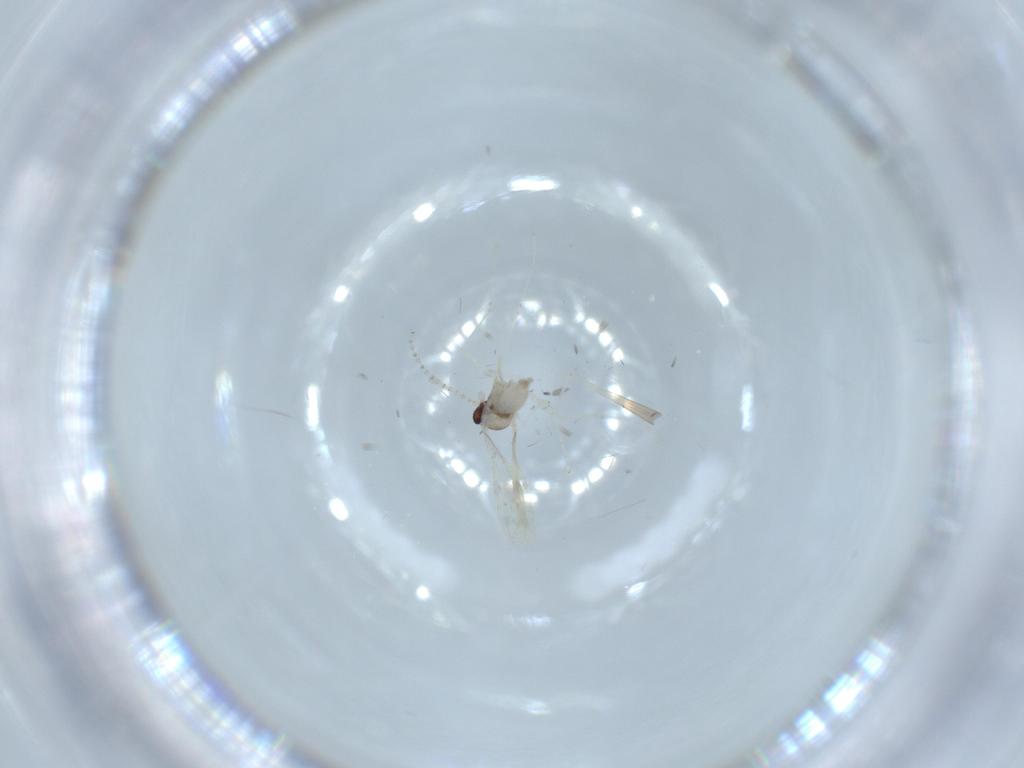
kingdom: Animalia
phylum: Arthropoda
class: Insecta
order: Diptera
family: Cecidomyiidae
